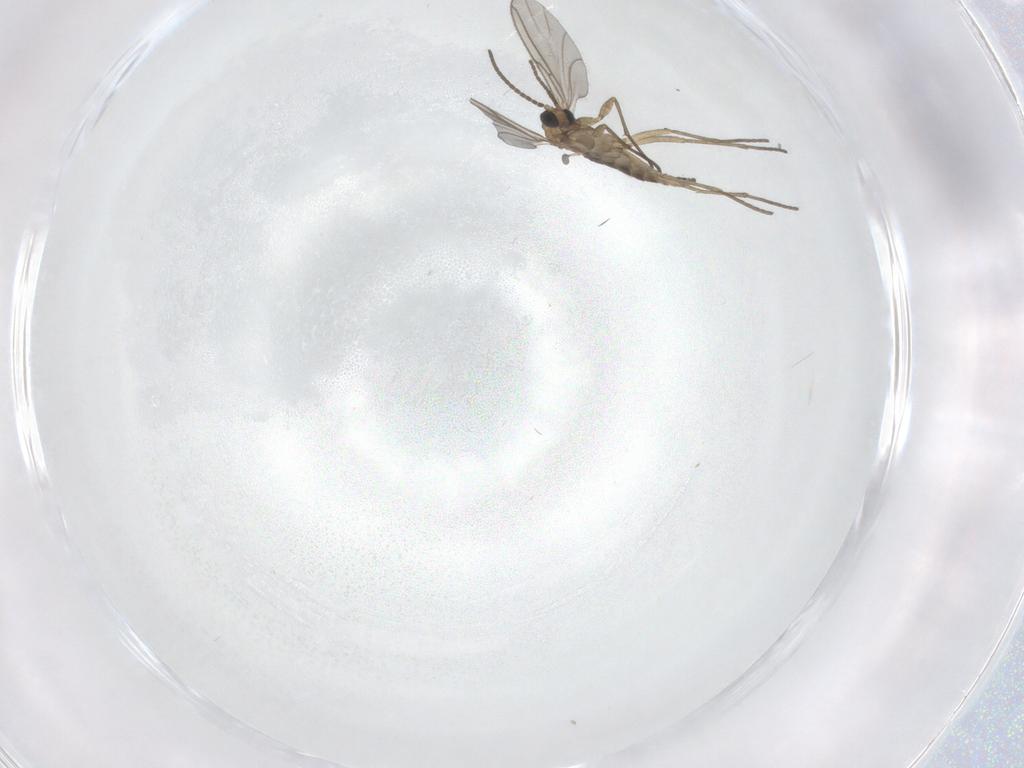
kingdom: Animalia
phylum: Arthropoda
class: Insecta
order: Diptera
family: Sciaridae
